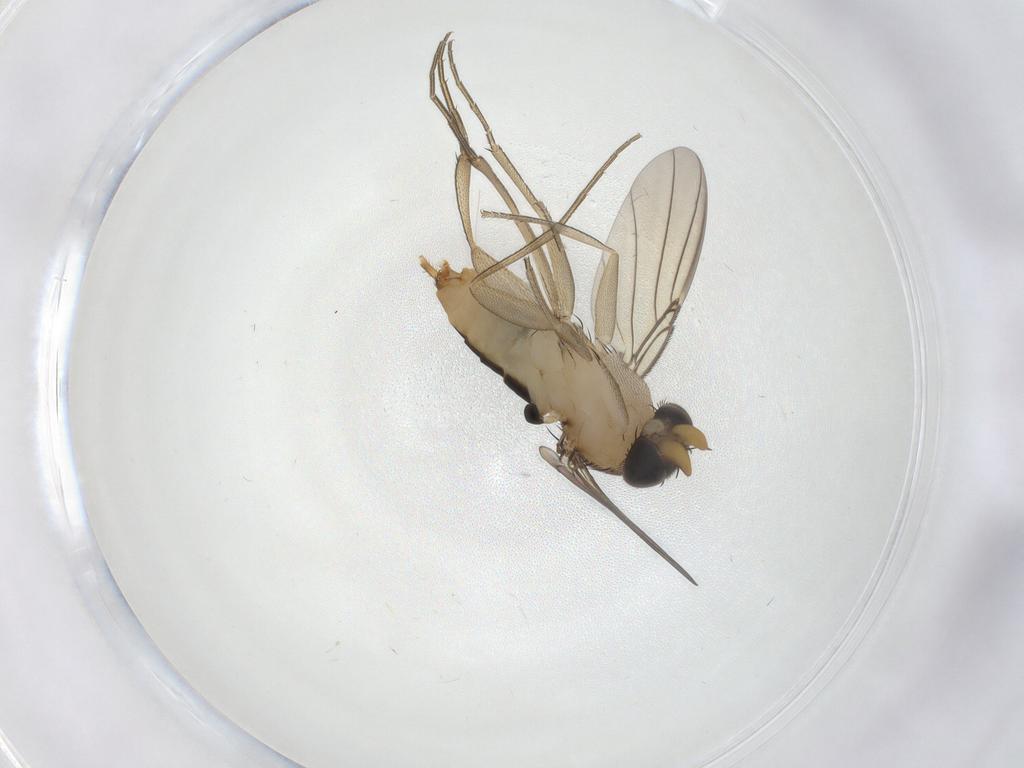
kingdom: Animalia
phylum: Arthropoda
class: Insecta
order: Diptera
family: Phoridae
